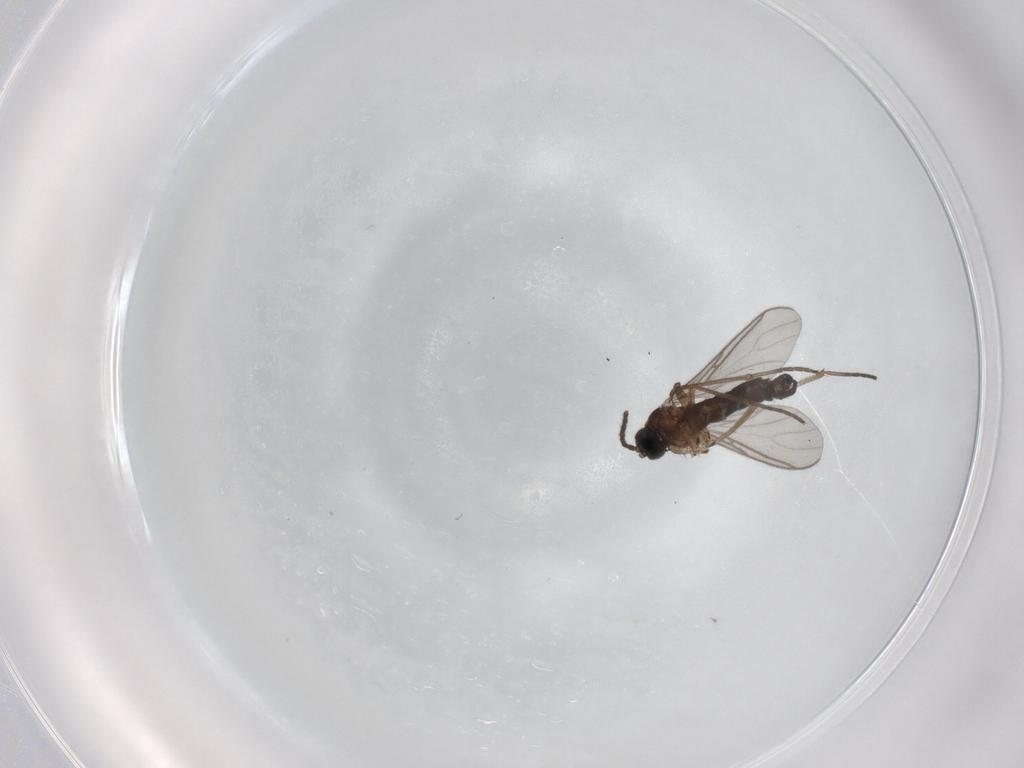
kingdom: Animalia
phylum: Arthropoda
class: Insecta
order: Diptera
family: Sciaridae
